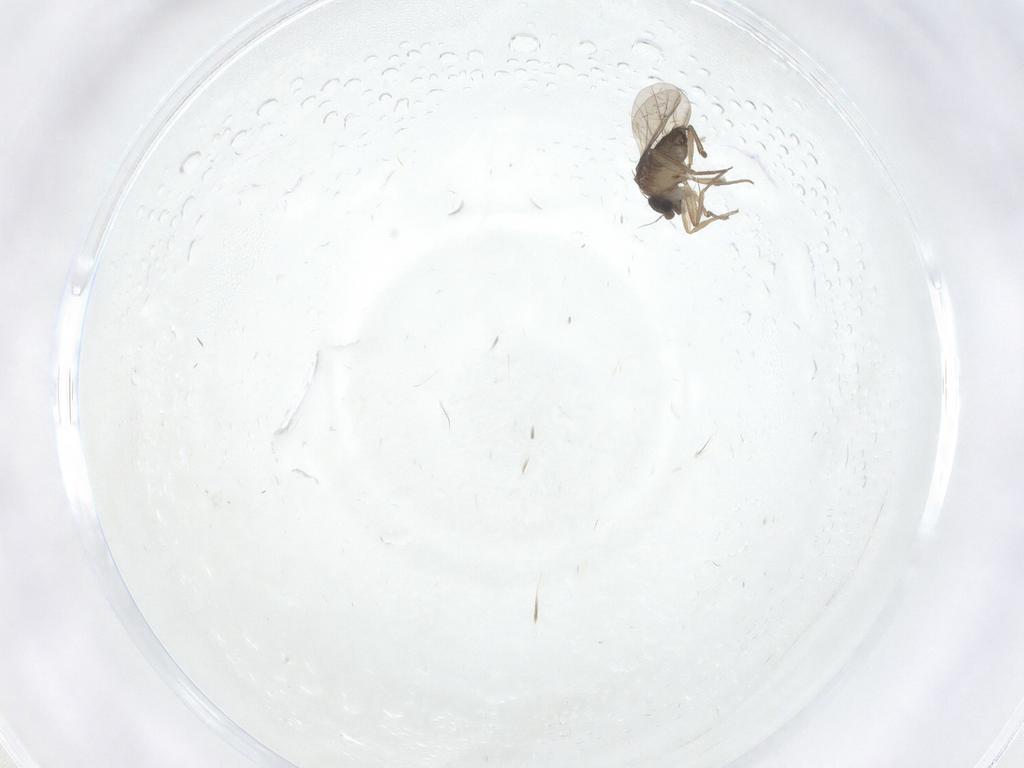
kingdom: Animalia
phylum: Arthropoda
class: Insecta
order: Diptera
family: Phoridae
